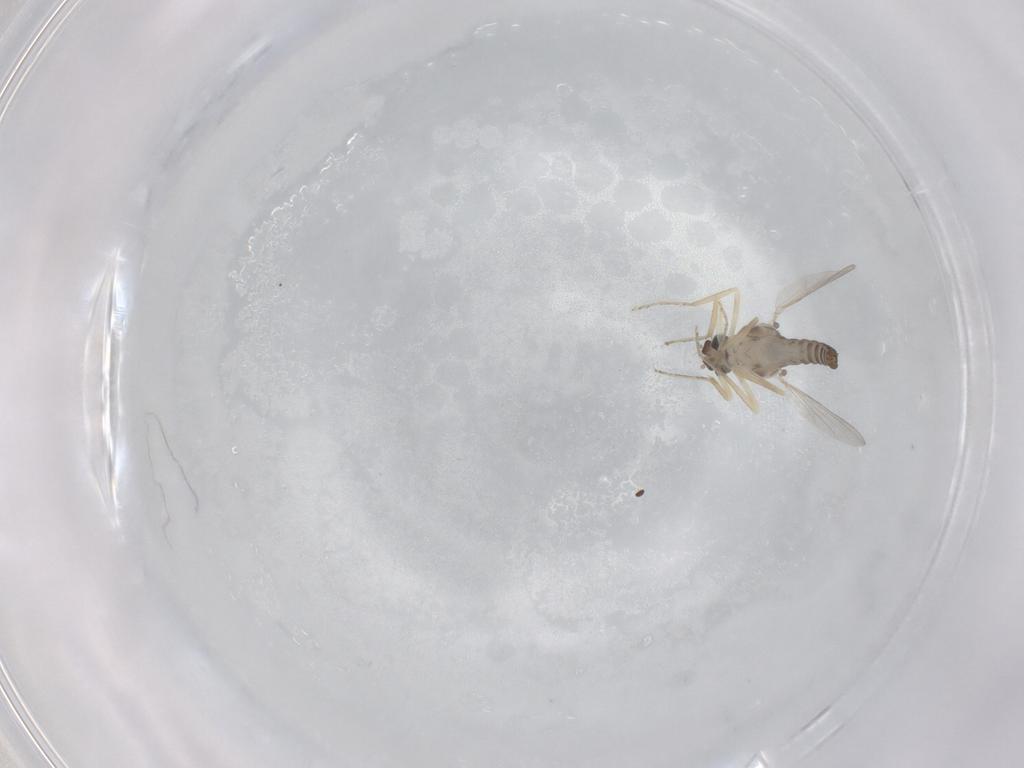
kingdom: Animalia
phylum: Arthropoda
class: Insecta
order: Diptera
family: Ceratopogonidae
